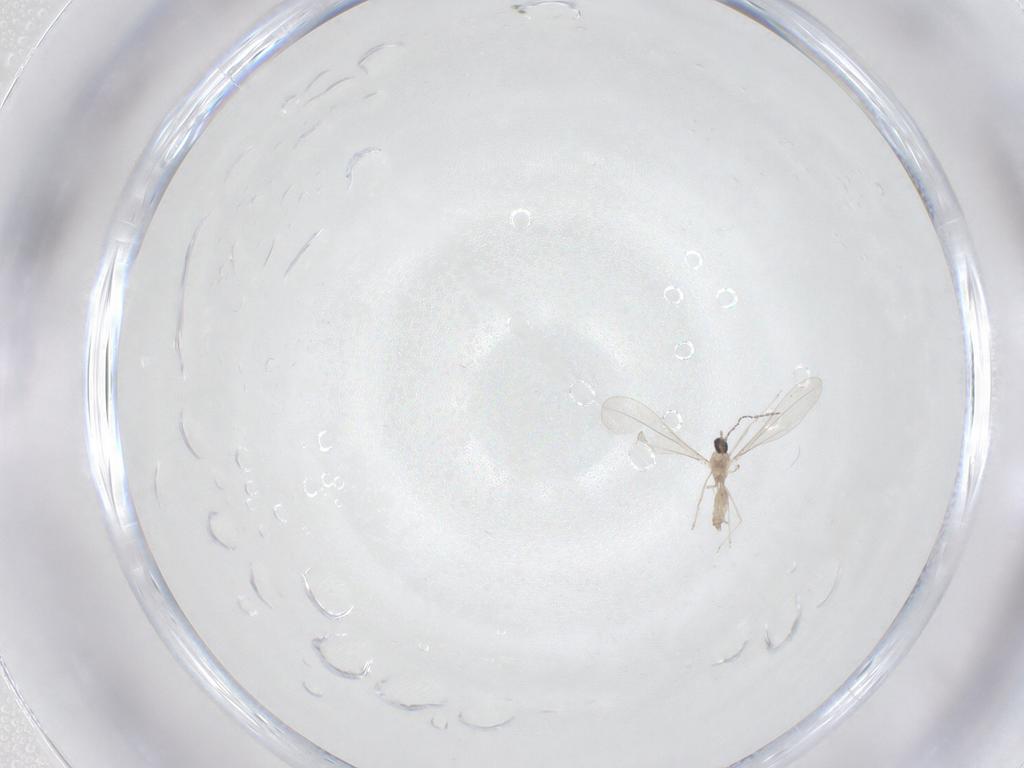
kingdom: Animalia
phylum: Arthropoda
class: Insecta
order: Diptera
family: Cecidomyiidae
